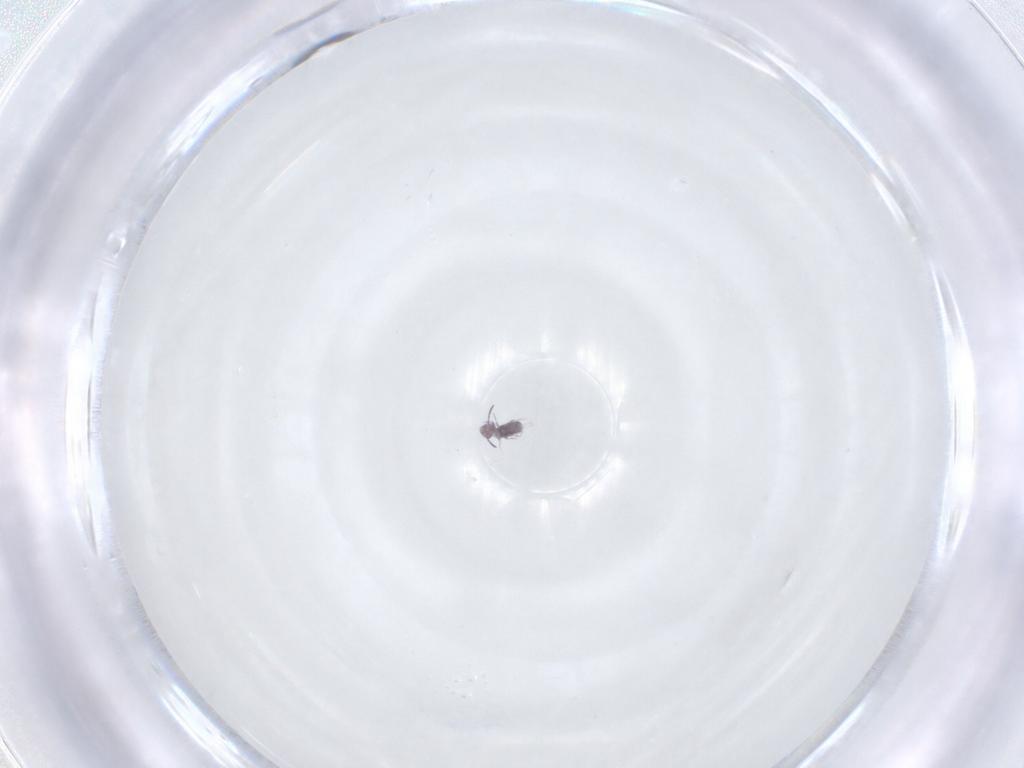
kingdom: Animalia
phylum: Arthropoda
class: Collembola
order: Symphypleona
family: Sminthurididae
